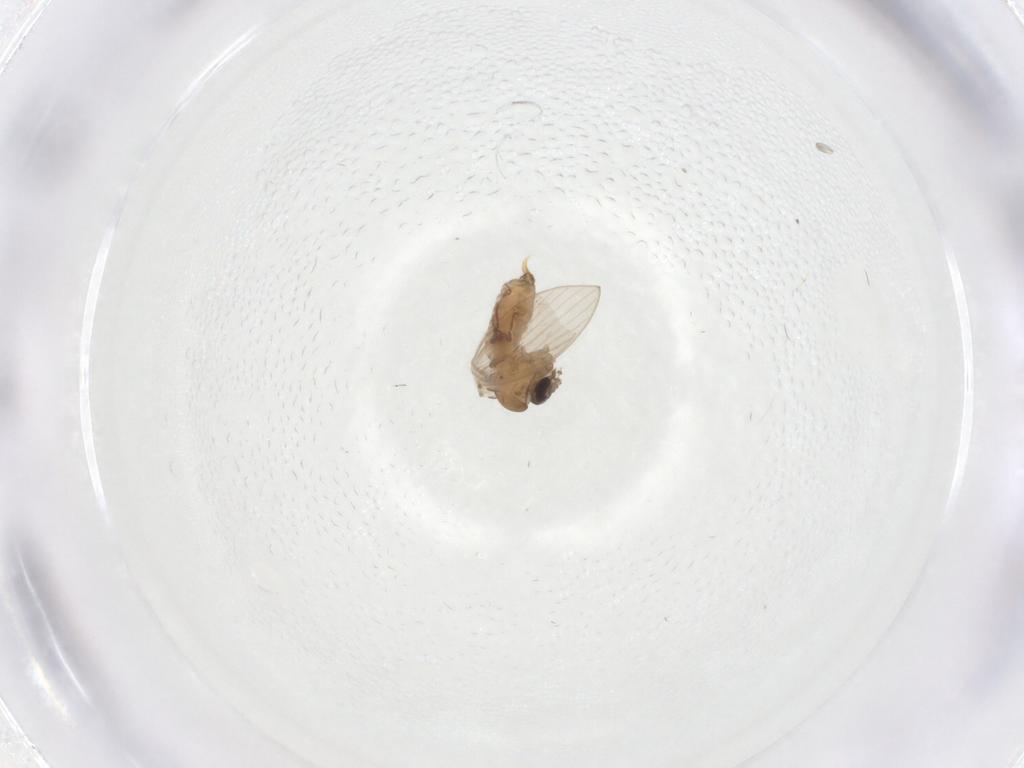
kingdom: Animalia
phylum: Arthropoda
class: Insecta
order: Diptera
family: Psychodidae
